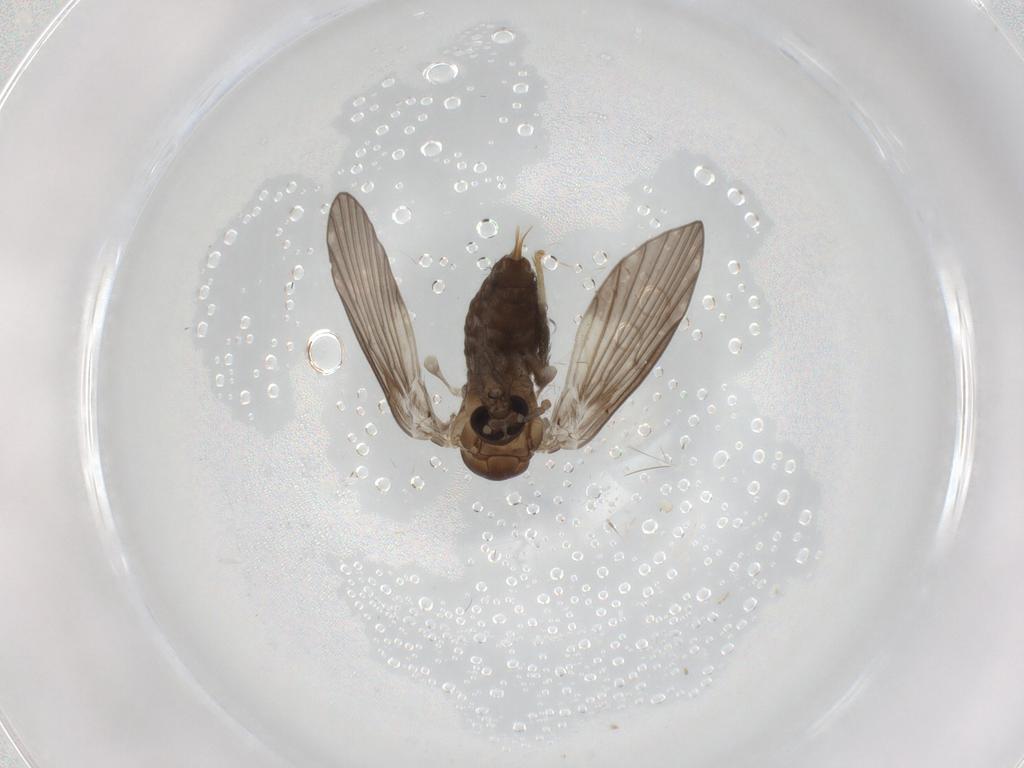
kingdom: Animalia
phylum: Arthropoda
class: Insecta
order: Diptera
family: Psychodidae
